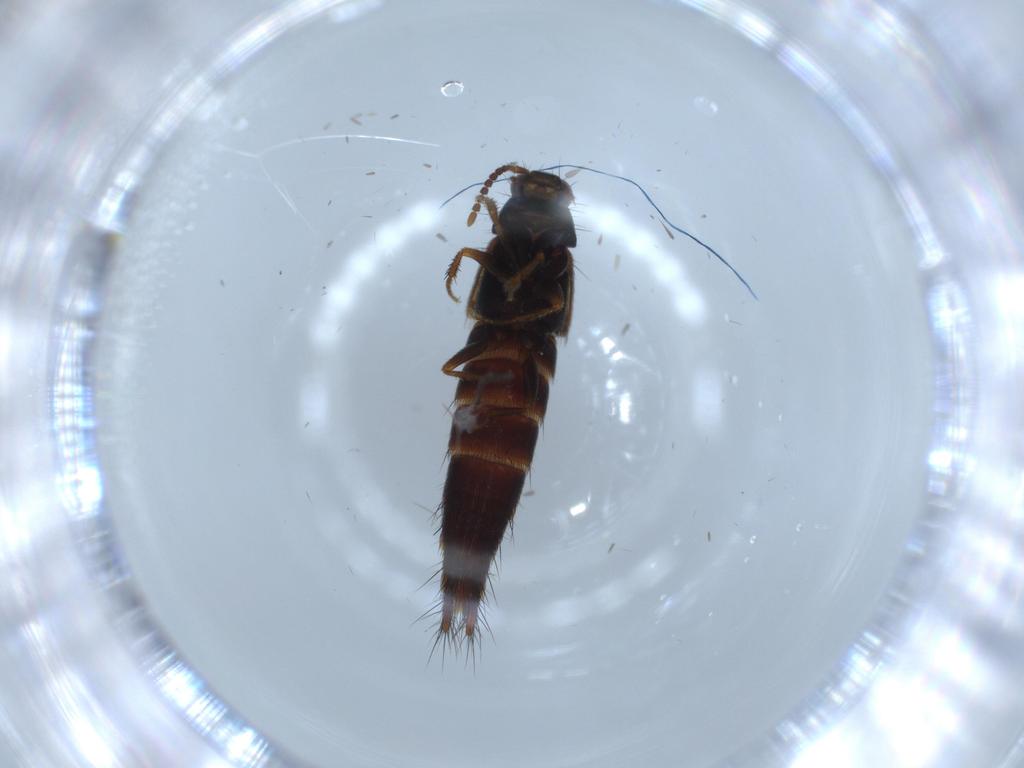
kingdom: Animalia
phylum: Arthropoda
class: Insecta
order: Coleoptera
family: Staphylinidae
